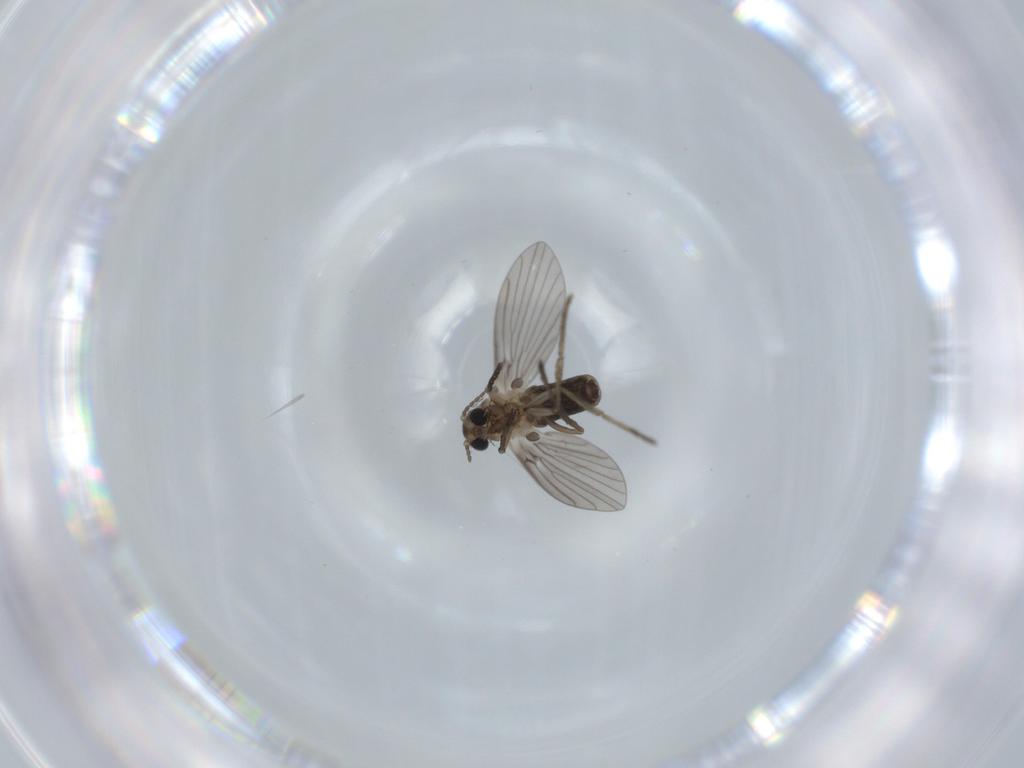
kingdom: Animalia
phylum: Arthropoda
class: Insecta
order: Diptera
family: Psychodidae
